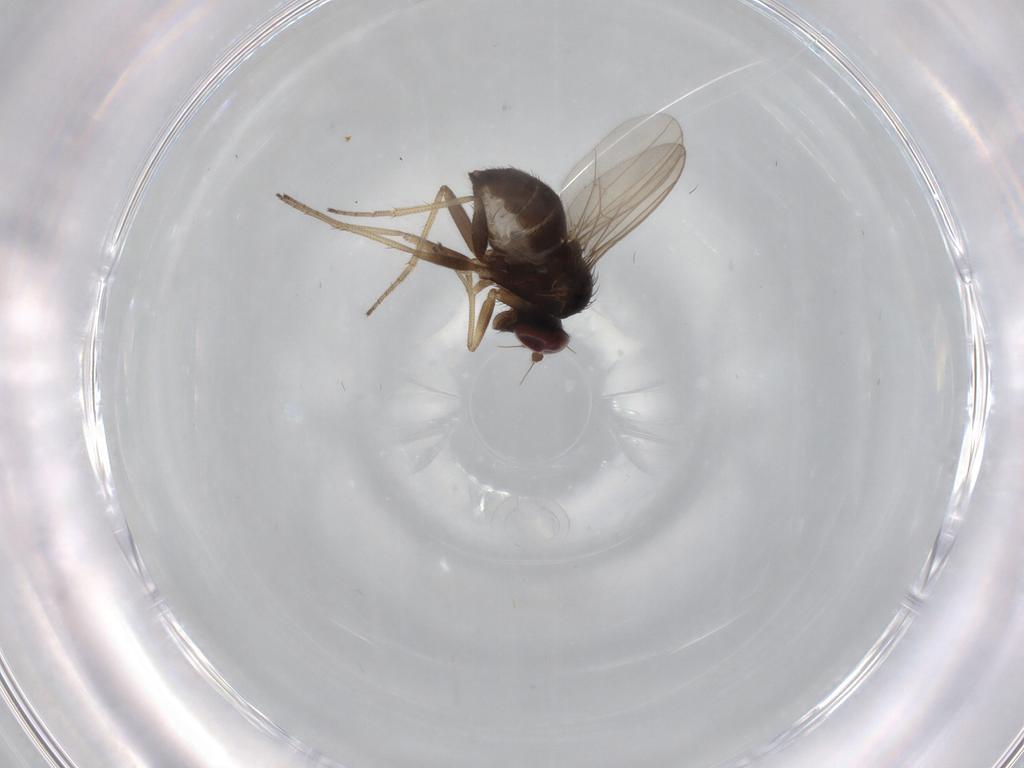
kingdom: Animalia
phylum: Arthropoda
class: Insecta
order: Diptera
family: Dolichopodidae
